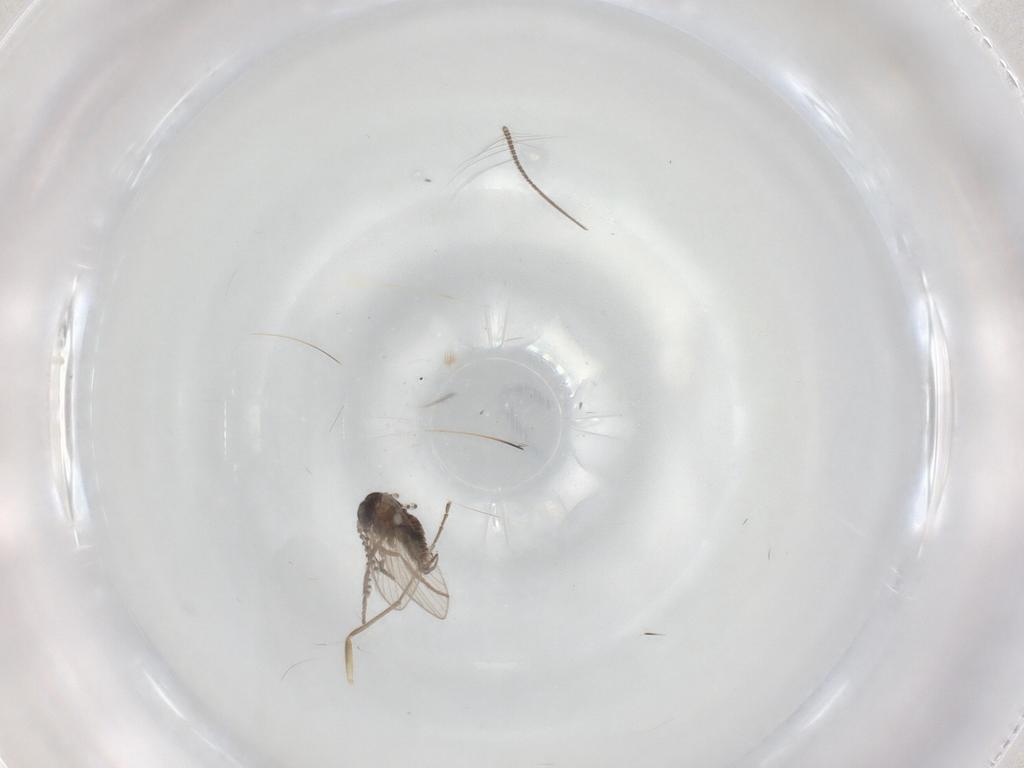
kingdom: Animalia
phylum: Arthropoda
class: Insecta
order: Diptera
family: Psychodidae
